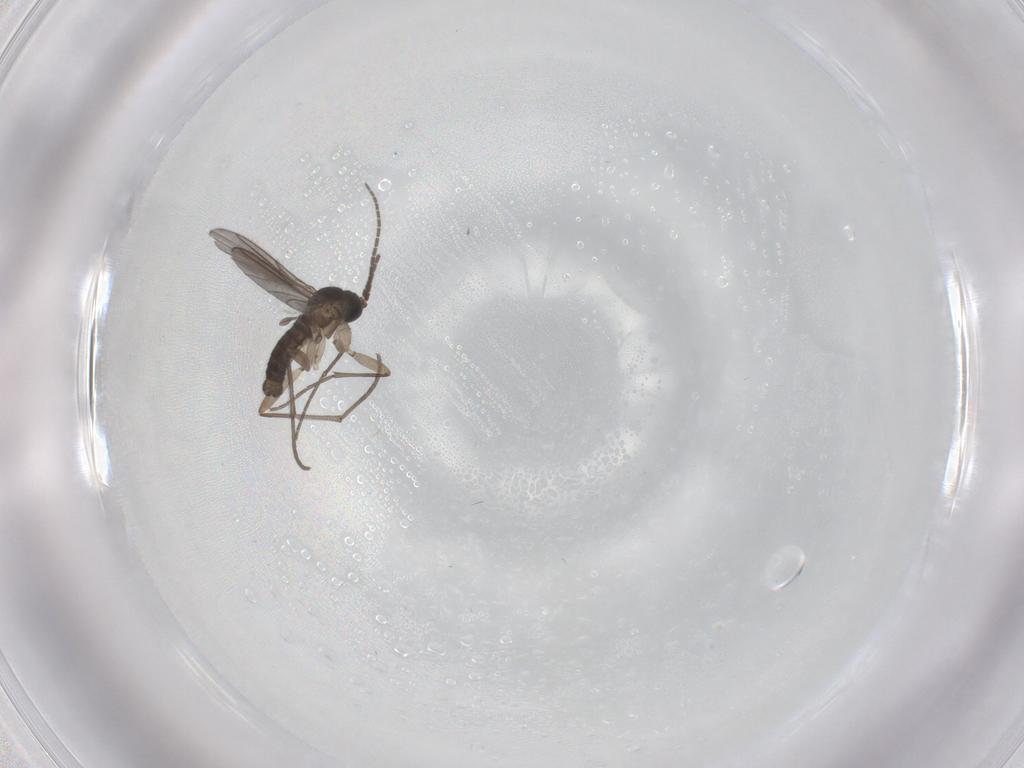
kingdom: Animalia
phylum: Arthropoda
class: Insecta
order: Diptera
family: Sciaridae
